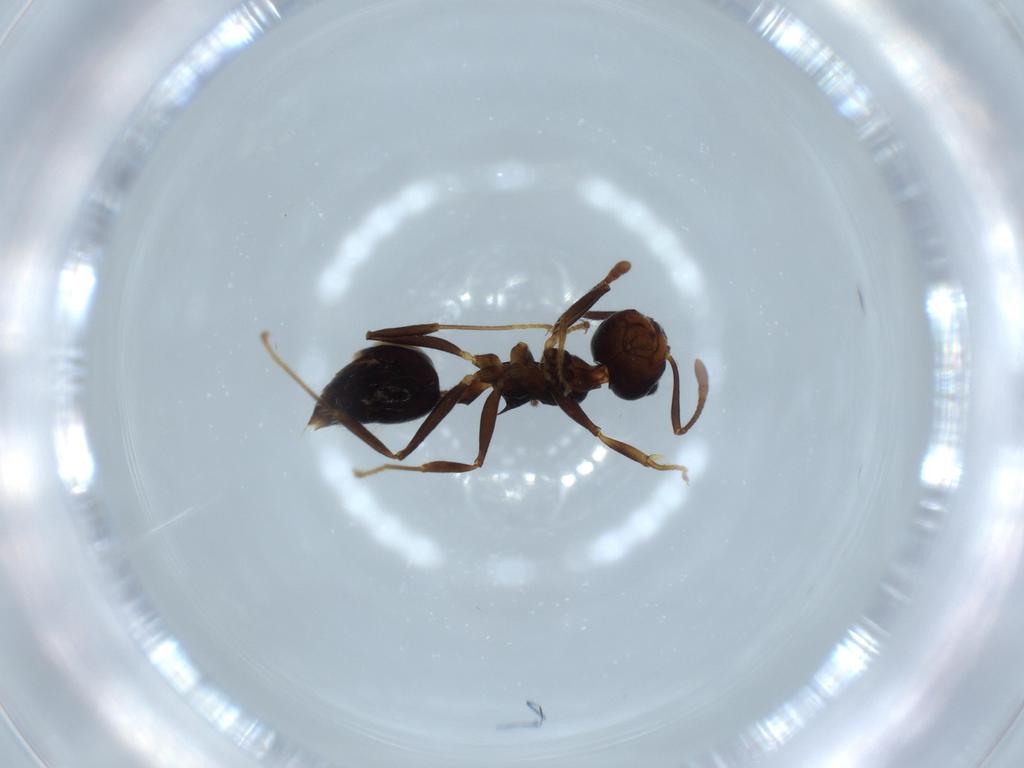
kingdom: Animalia
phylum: Arthropoda
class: Insecta
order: Hymenoptera
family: Formicidae
